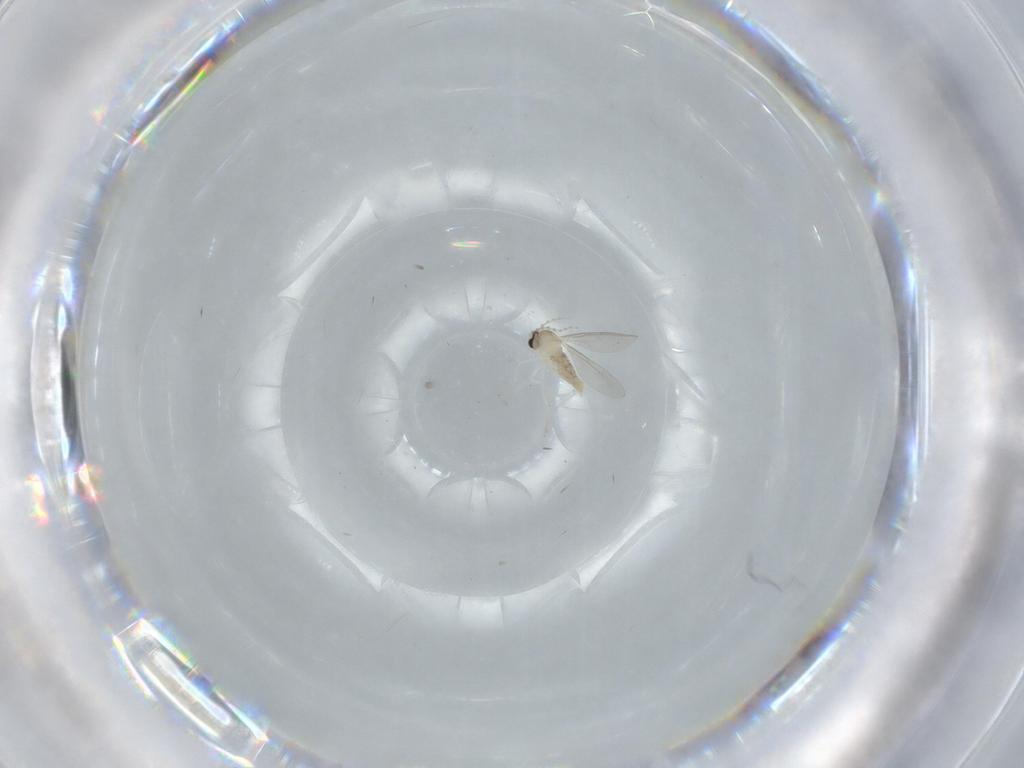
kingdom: Animalia
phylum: Arthropoda
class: Insecta
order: Diptera
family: Cecidomyiidae
